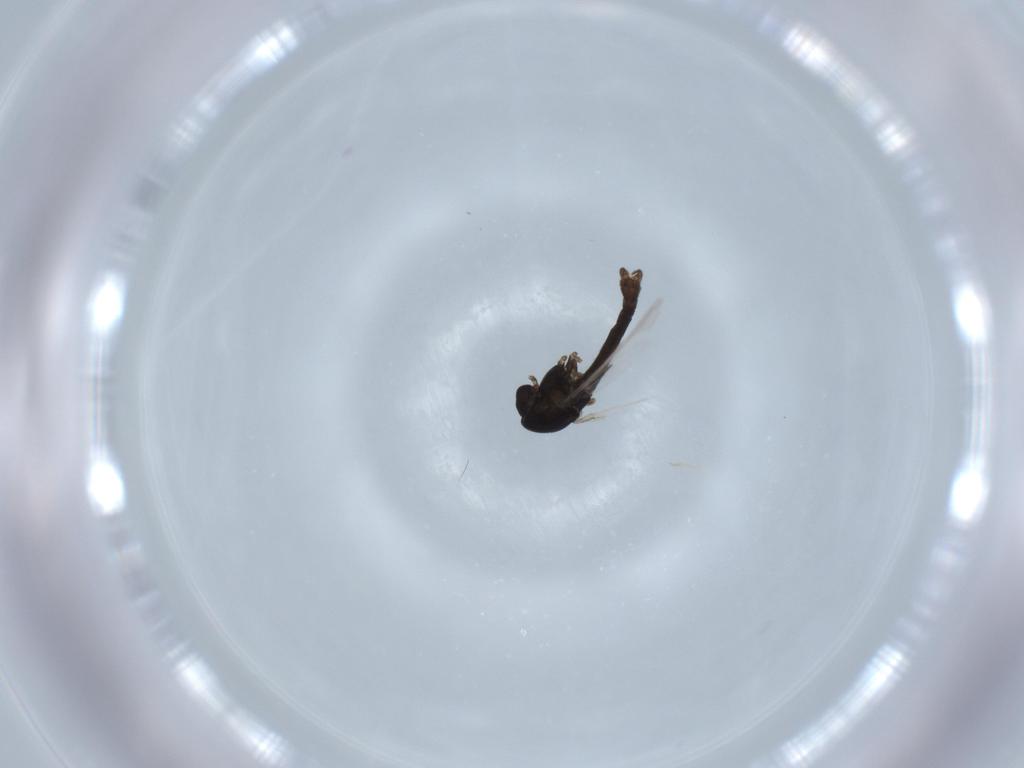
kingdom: Animalia
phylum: Arthropoda
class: Insecta
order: Diptera
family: Chironomidae
